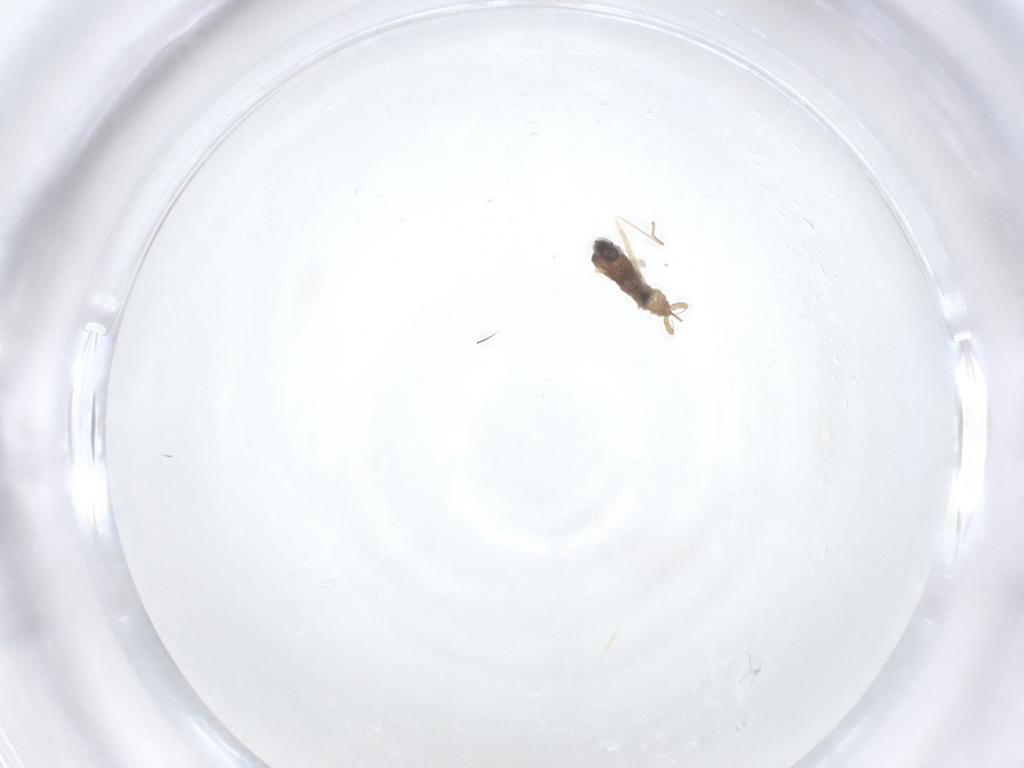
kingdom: Animalia
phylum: Arthropoda
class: Insecta
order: Diptera
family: Cecidomyiidae
